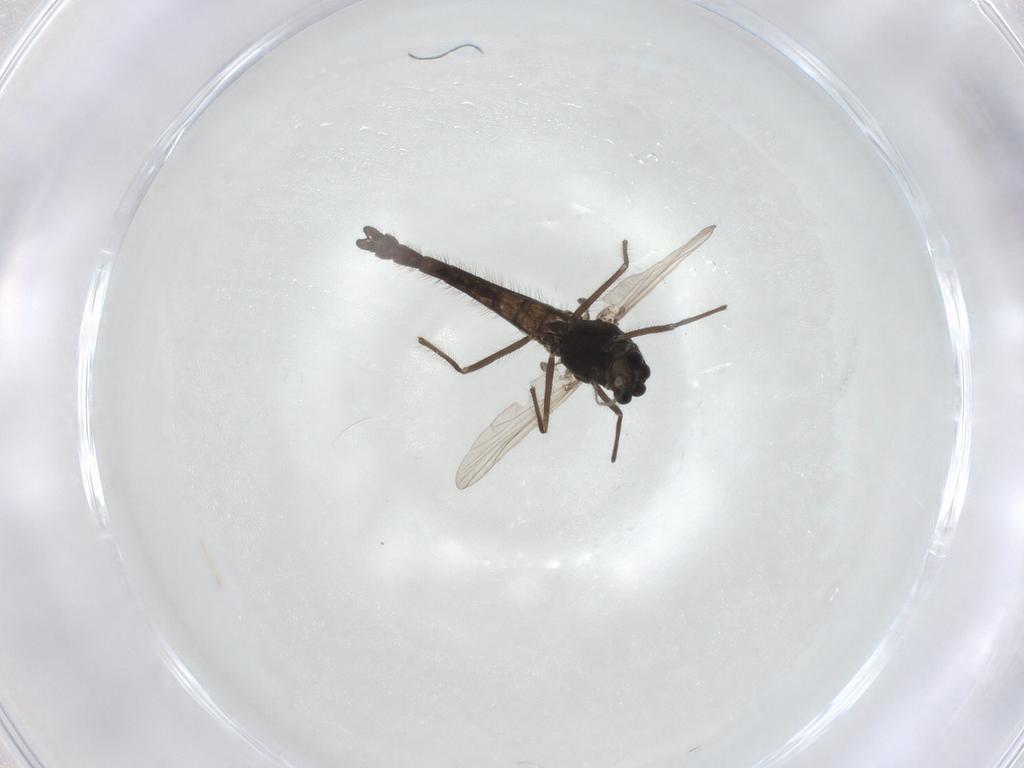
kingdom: Animalia
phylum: Arthropoda
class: Insecta
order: Diptera
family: Chironomidae
